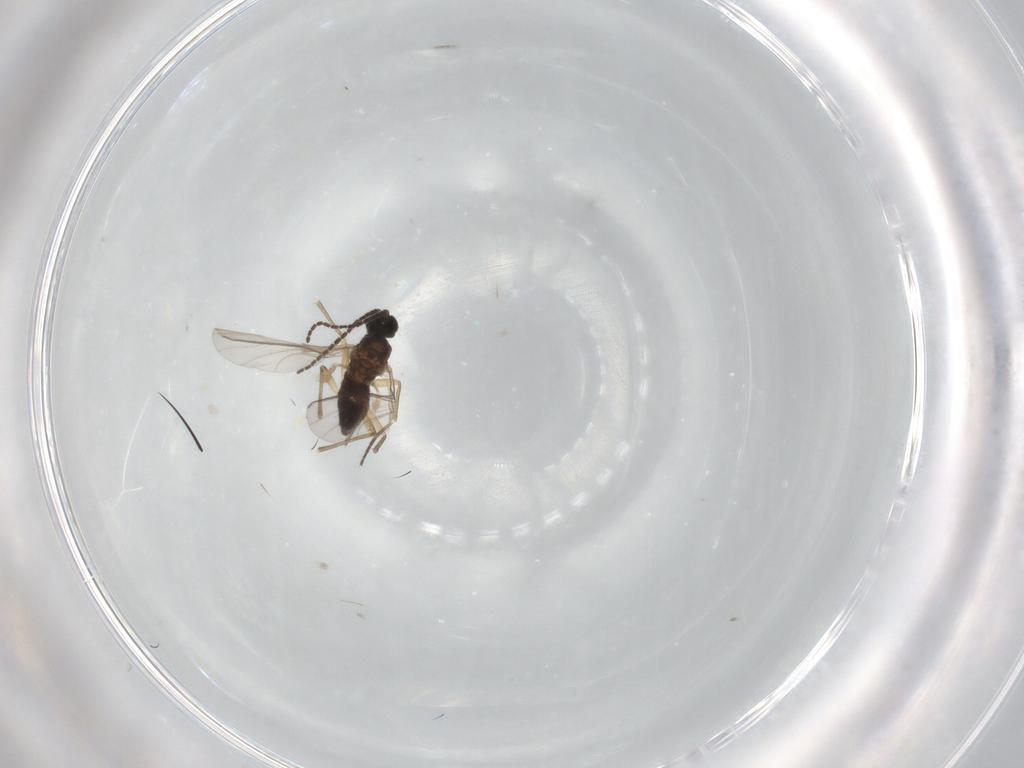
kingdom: Animalia
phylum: Arthropoda
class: Insecta
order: Diptera
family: Sciaridae
